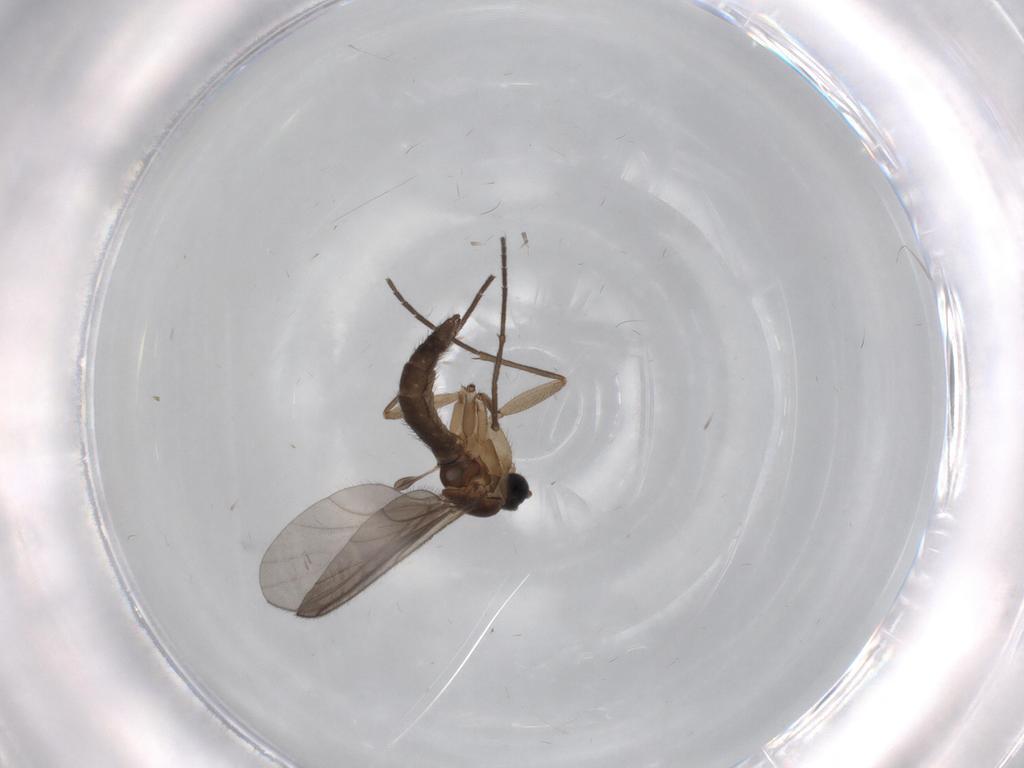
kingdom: Animalia
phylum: Arthropoda
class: Insecta
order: Diptera
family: Sciaridae
